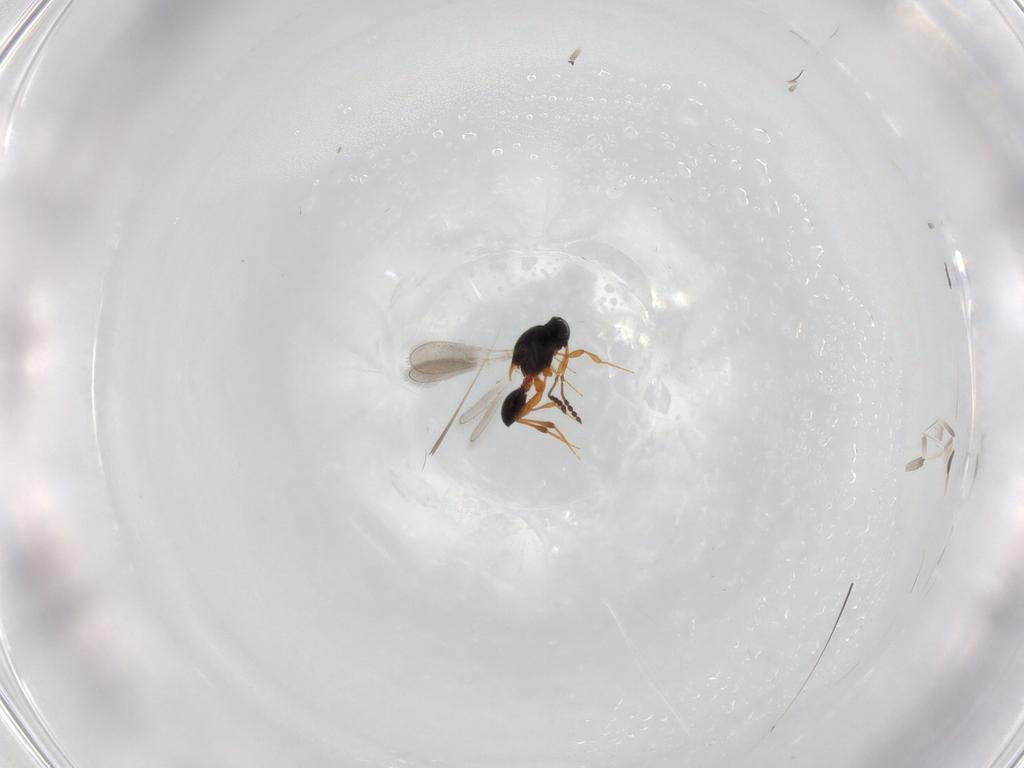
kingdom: Animalia
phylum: Arthropoda
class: Insecta
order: Hymenoptera
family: Platygastridae
